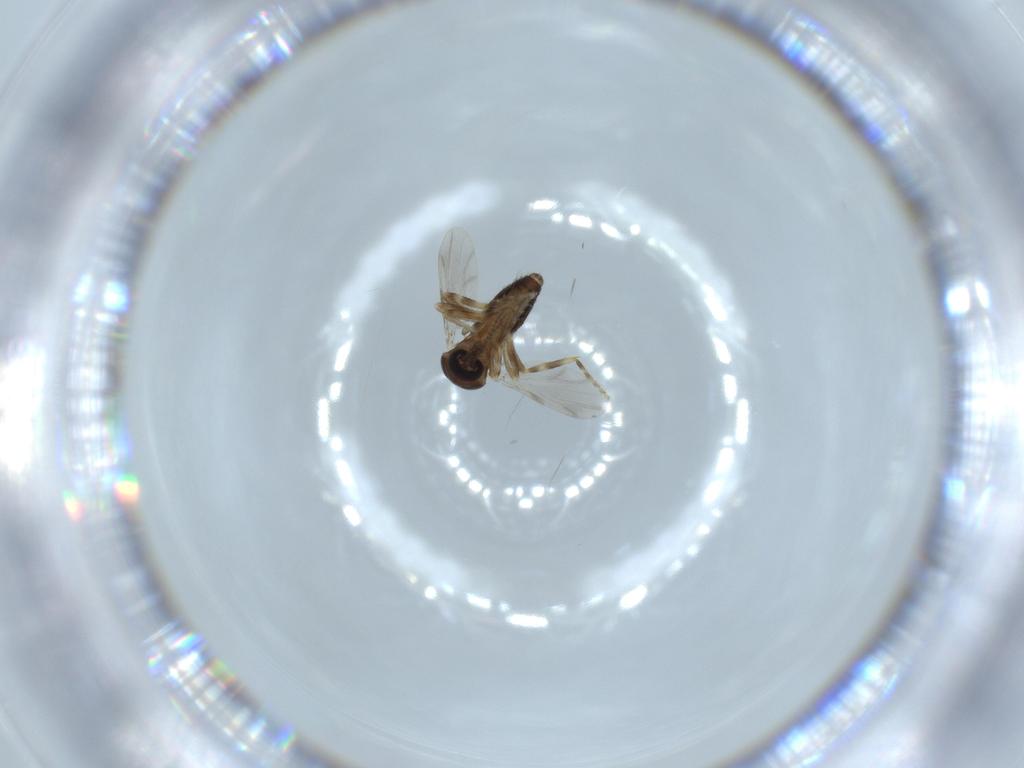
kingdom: Animalia
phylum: Arthropoda
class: Insecta
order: Diptera
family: Ceratopogonidae
